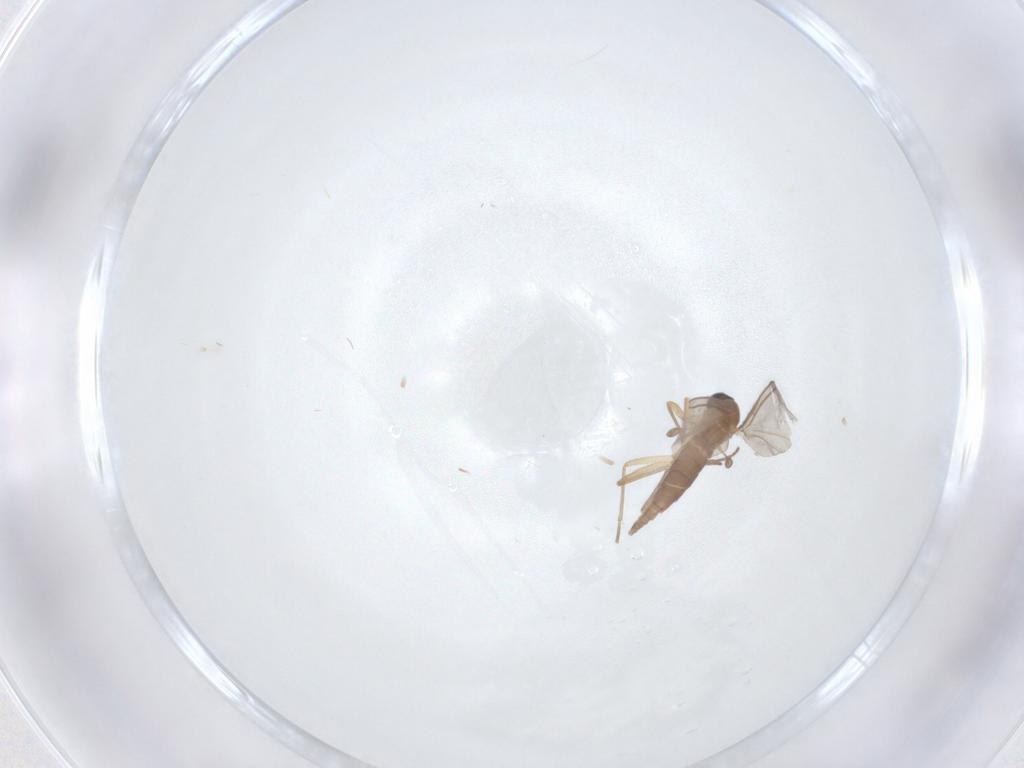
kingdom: Animalia
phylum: Arthropoda
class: Insecta
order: Diptera
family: Sciaridae
